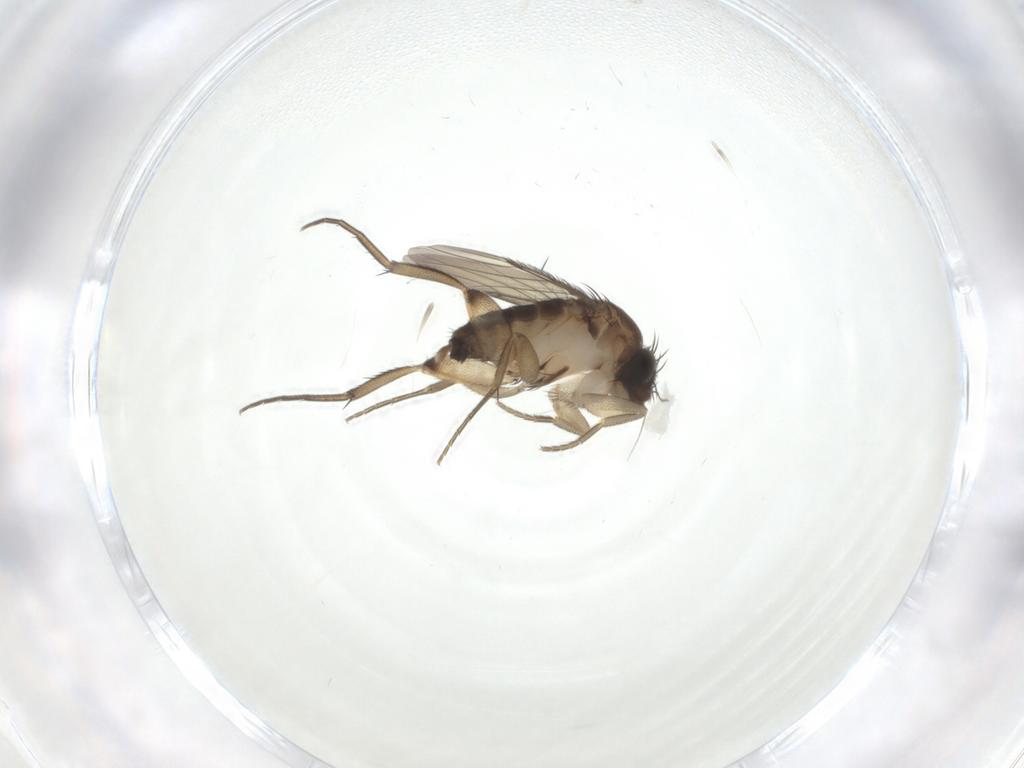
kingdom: Animalia
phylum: Arthropoda
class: Insecta
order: Diptera
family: Phoridae
